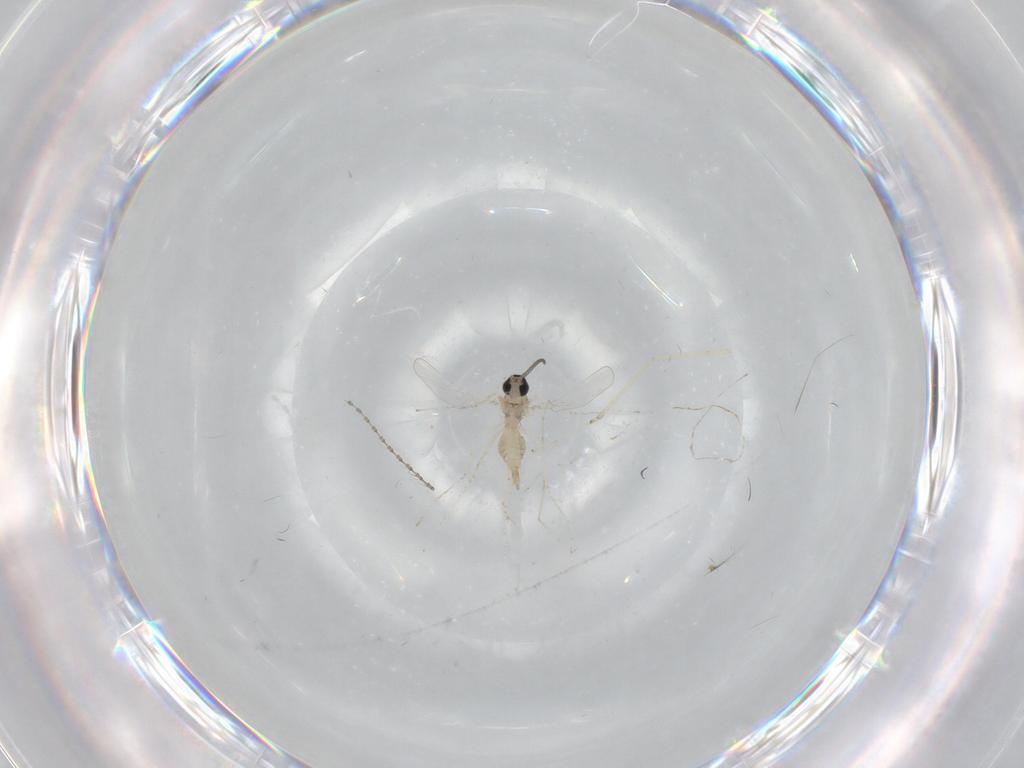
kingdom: Animalia
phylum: Arthropoda
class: Insecta
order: Diptera
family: Cecidomyiidae
